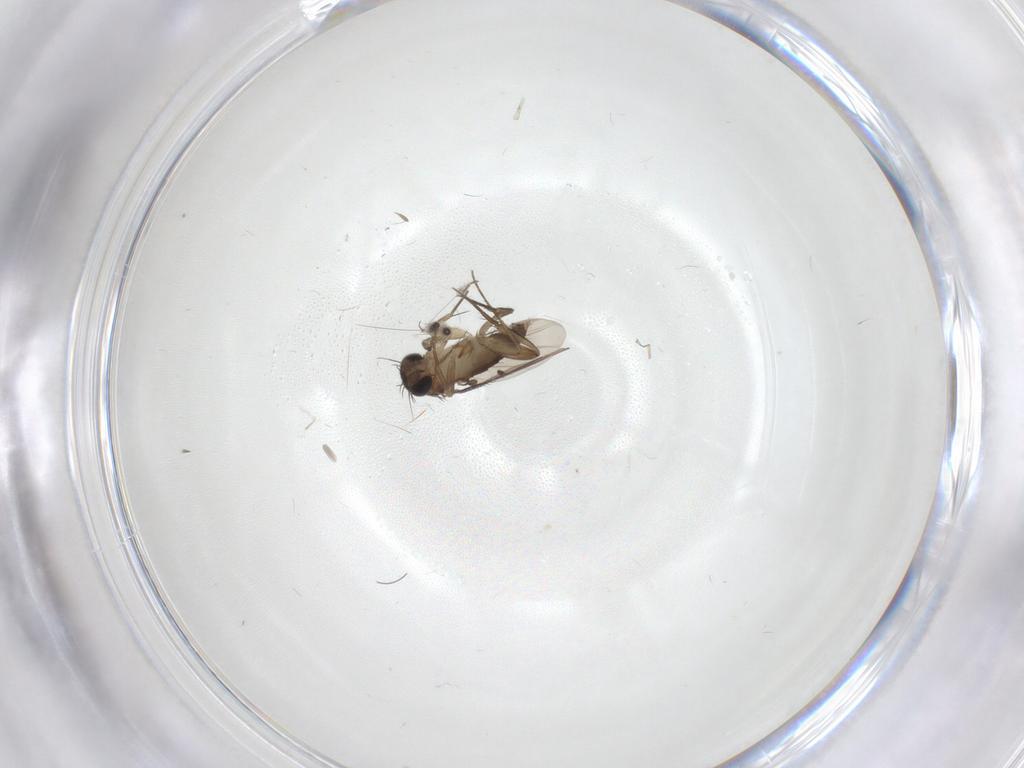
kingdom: Animalia
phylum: Arthropoda
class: Insecta
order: Diptera
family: Phoridae
